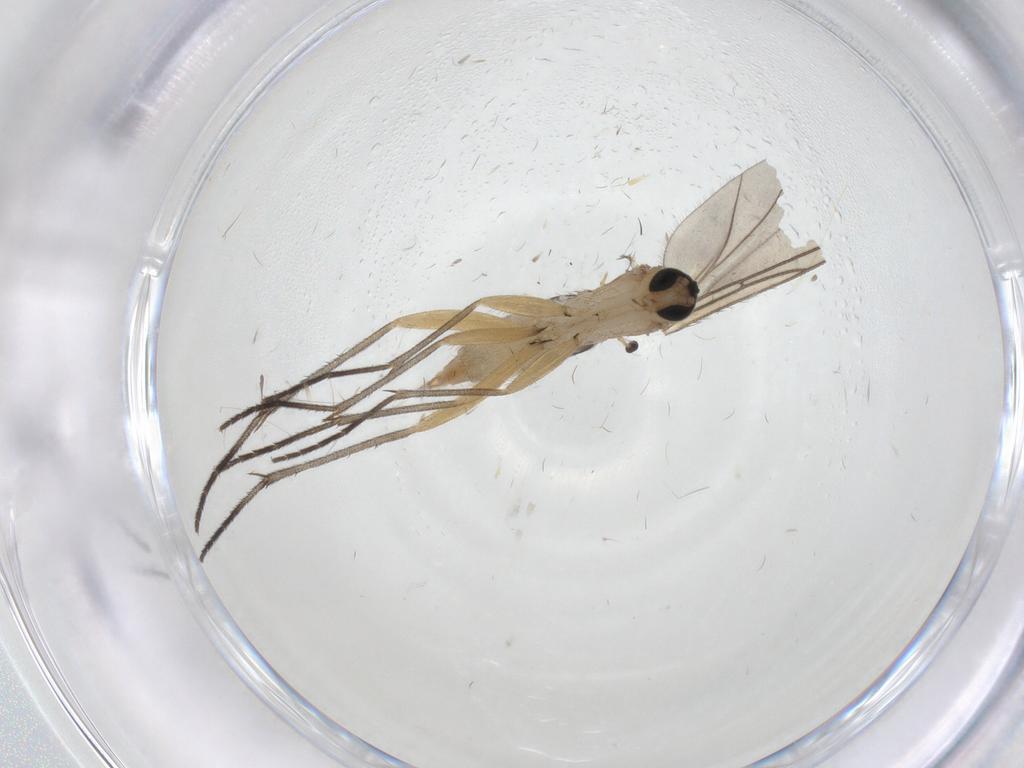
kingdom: Animalia
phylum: Arthropoda
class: Insecta
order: Diptera
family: Sciaridae
